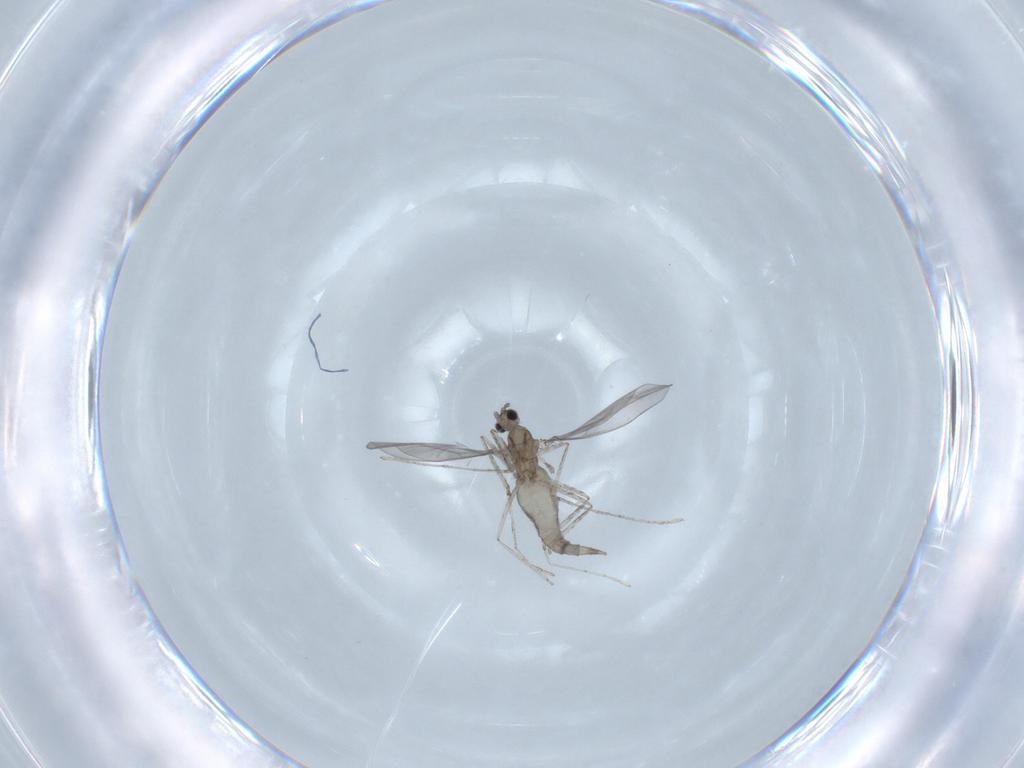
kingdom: Animalia
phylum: Arthropoda
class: Insecta
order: Diptera
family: Cecidomyiidae
